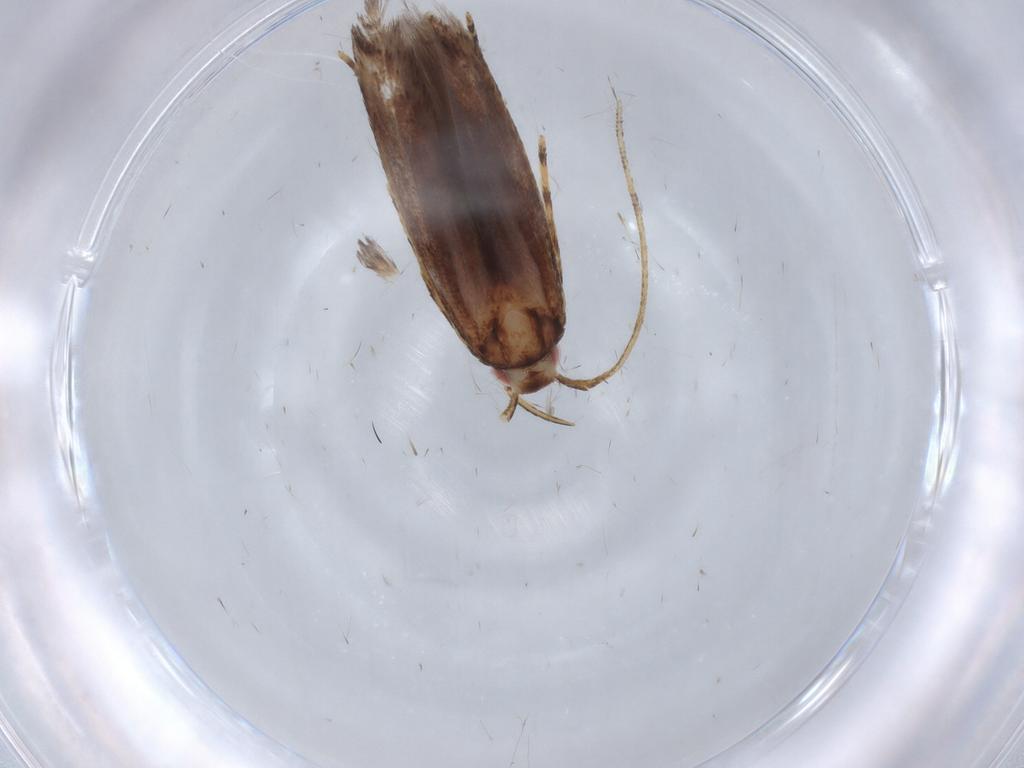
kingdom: Animalia
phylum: Arthropoda
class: Insecta
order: Lepidoptera
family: Cosmopterigidae
